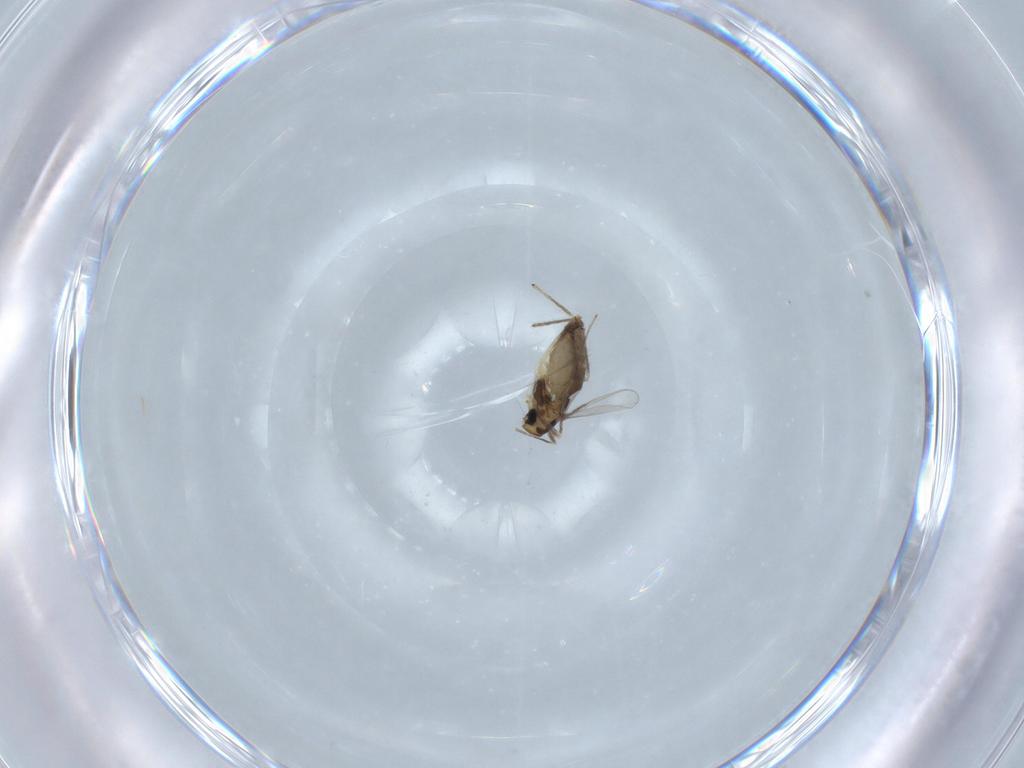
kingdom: Animalia
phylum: Arthropoda
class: Insecta
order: Diptera
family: Chironomidae
